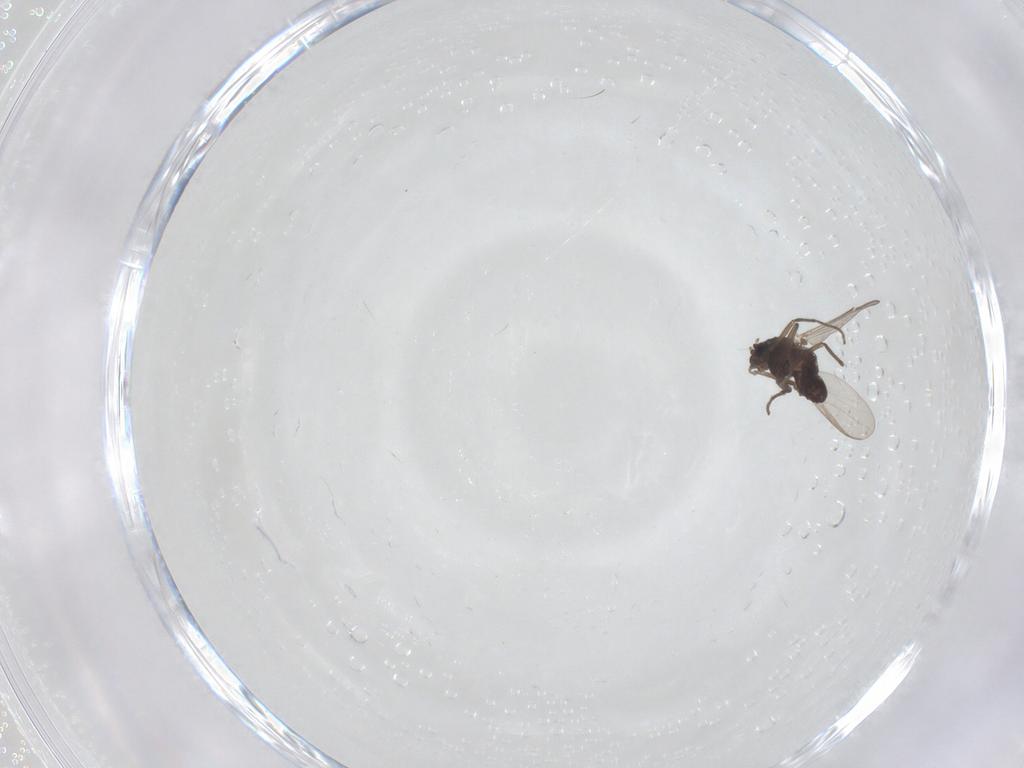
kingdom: Animalia
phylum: Arthropoda
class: Insecta
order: Diptera
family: Chironomidae
